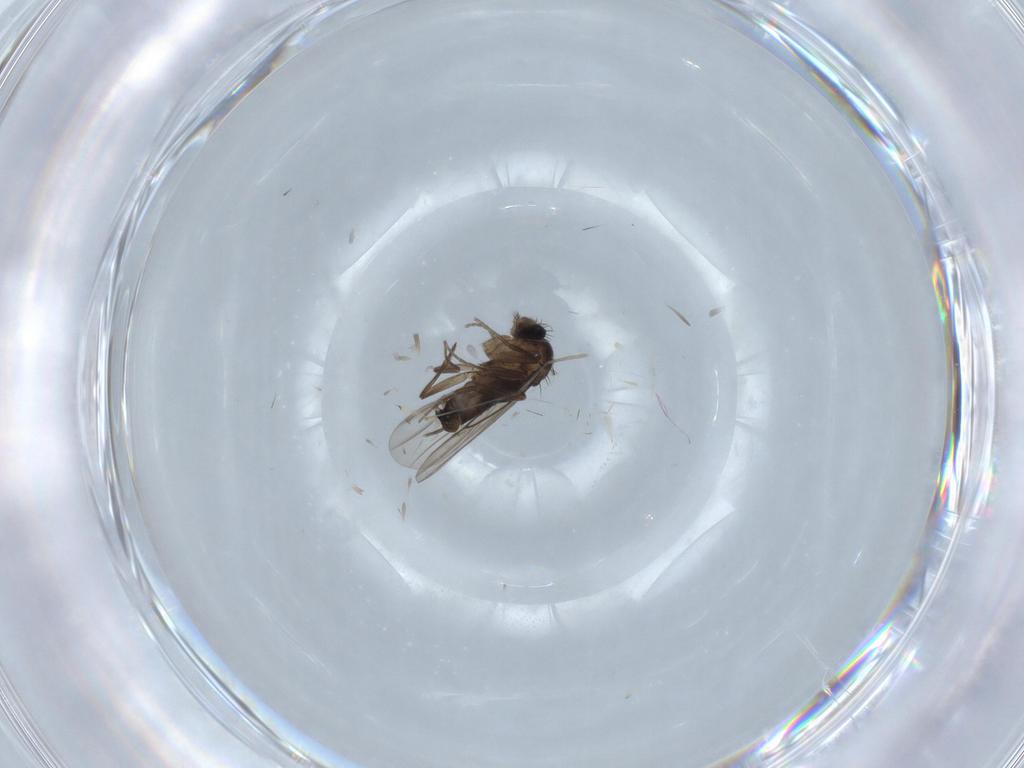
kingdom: Animalia
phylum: Arthropoda
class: Insecta
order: Diptera
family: Phoridae
